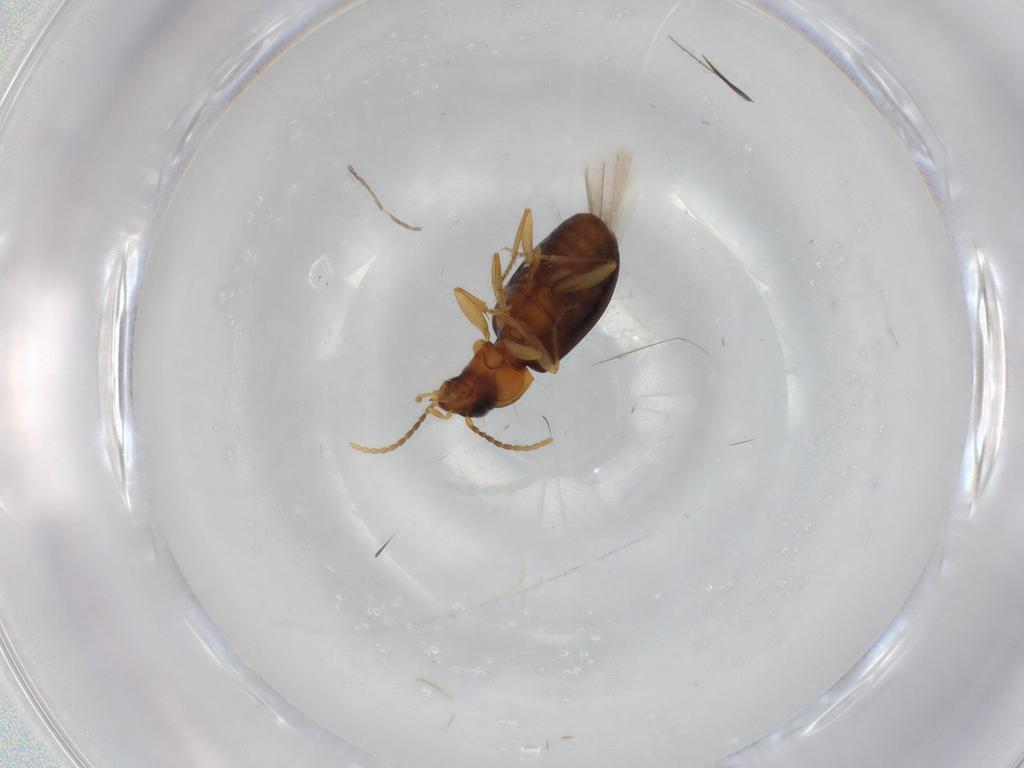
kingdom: Animalia
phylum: Arthropoda
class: Insecta
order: Coleoptera
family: Carabidae
